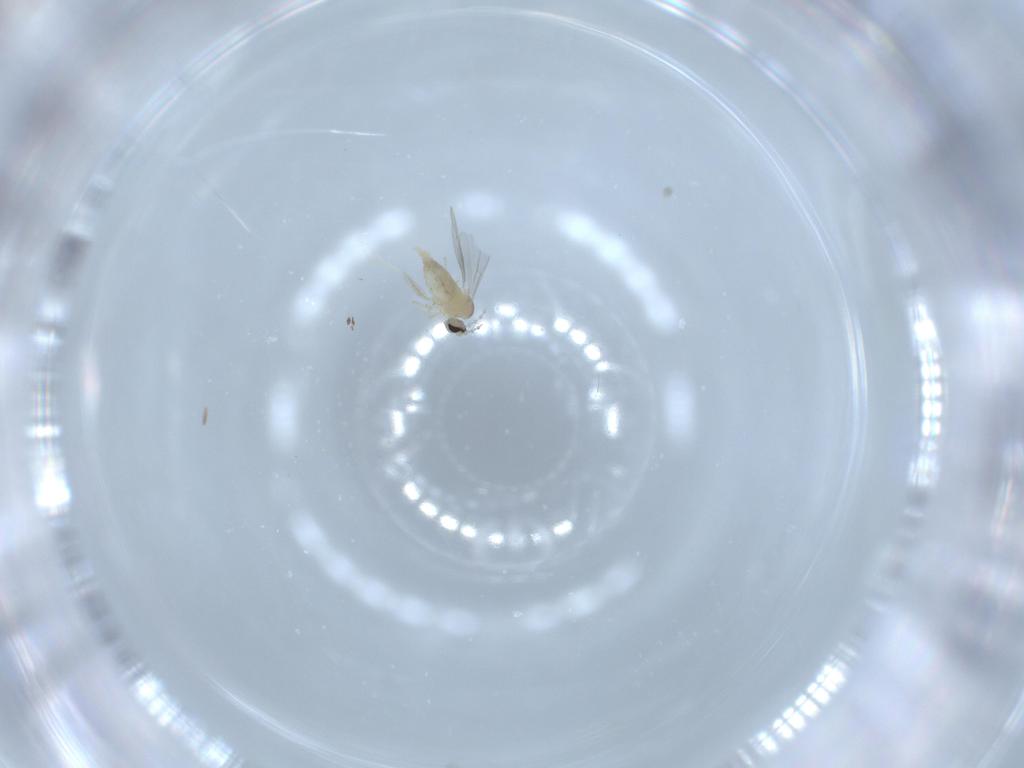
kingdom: Animalia
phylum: Arthropoda
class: Insecta
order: Diptera
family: Cecidomyiidae
